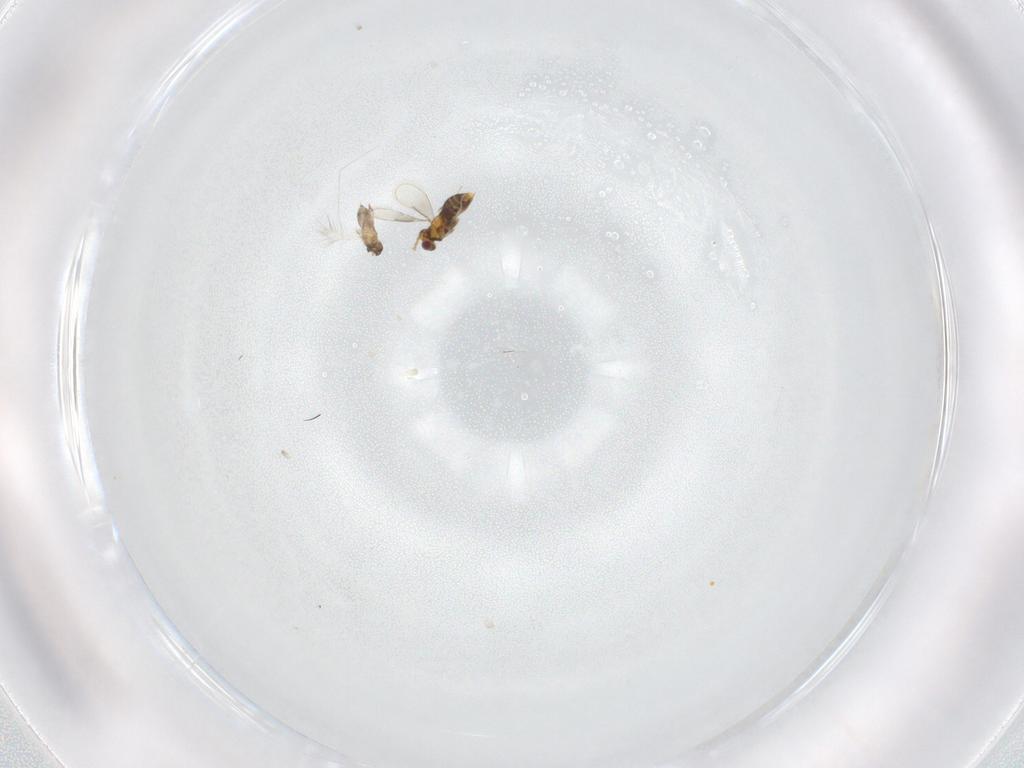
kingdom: Animalia
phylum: Arthropoda
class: Insecta
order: Hymenoptera
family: Aphelinidae
